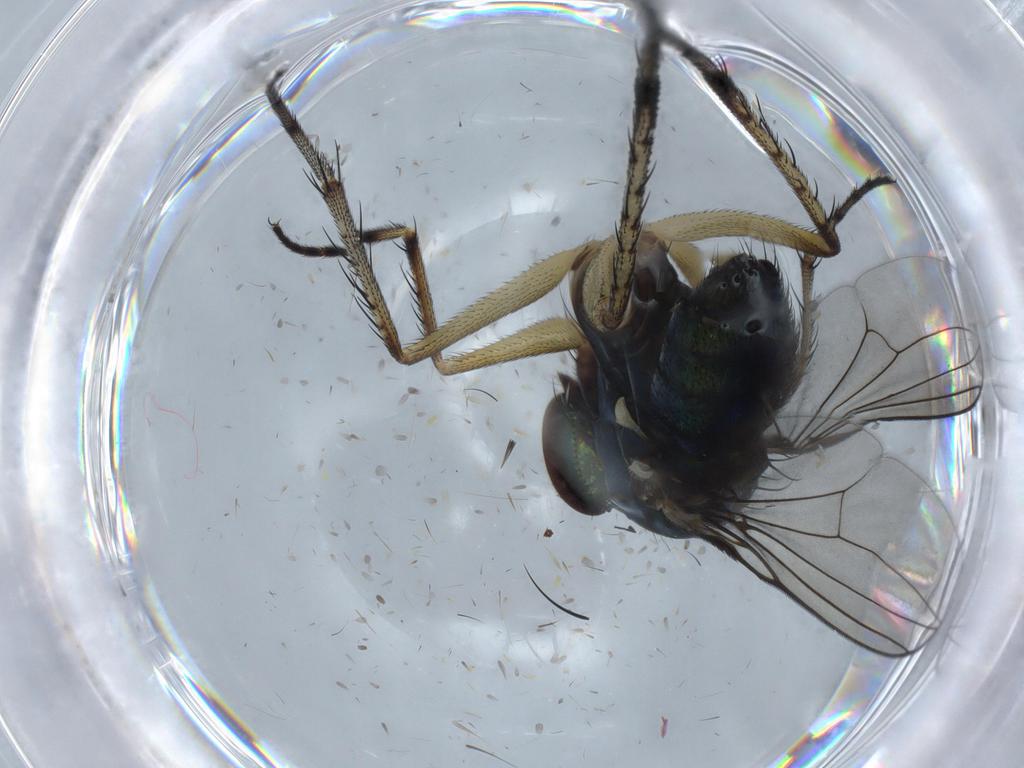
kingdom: Animalia
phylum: Arthropoda
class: Insecta
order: Diptera
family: Dolichopodidae
